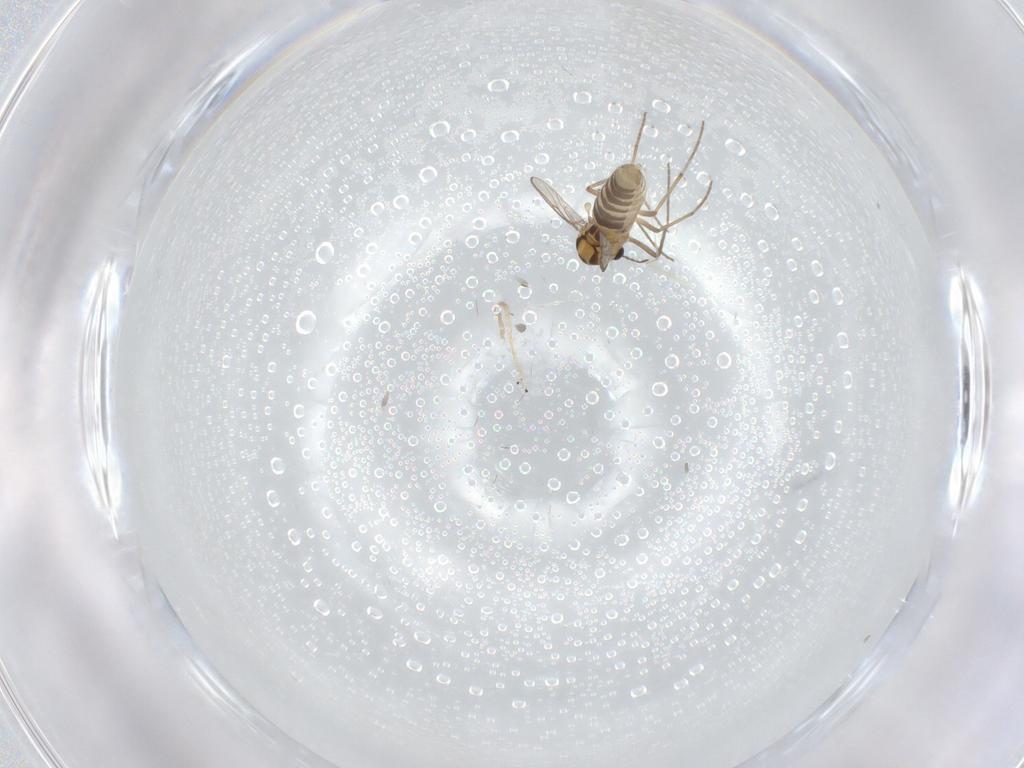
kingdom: Animalia
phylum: Arthropoda
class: Insecta
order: Diptera
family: Chironomidae
